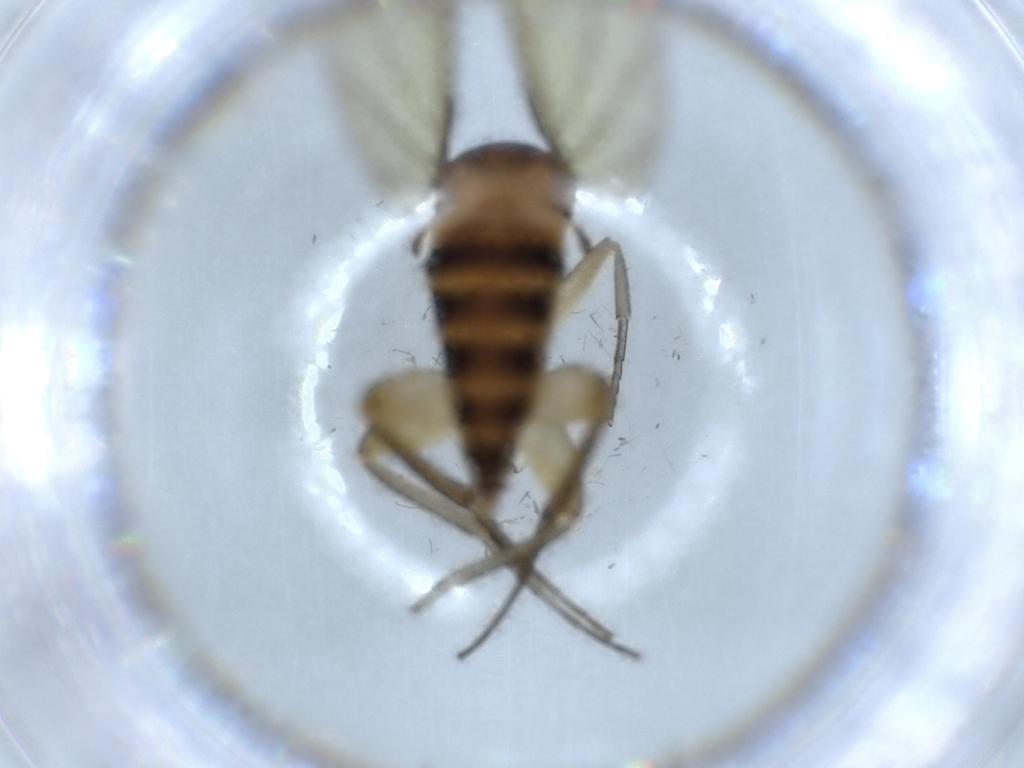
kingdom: Animalia
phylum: Arthropoda
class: Insecta
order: Diptera
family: Cecidomyiidae
